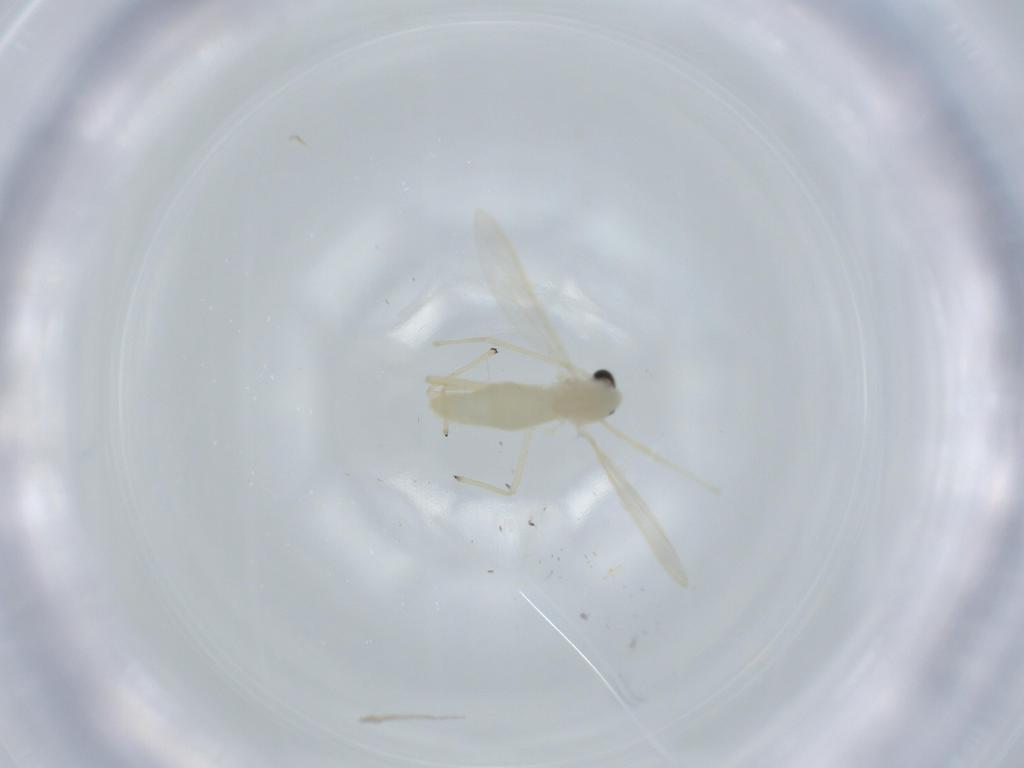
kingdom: Animalia
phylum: Arthropoda
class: Insecta
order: Diptera
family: Chironomidae
